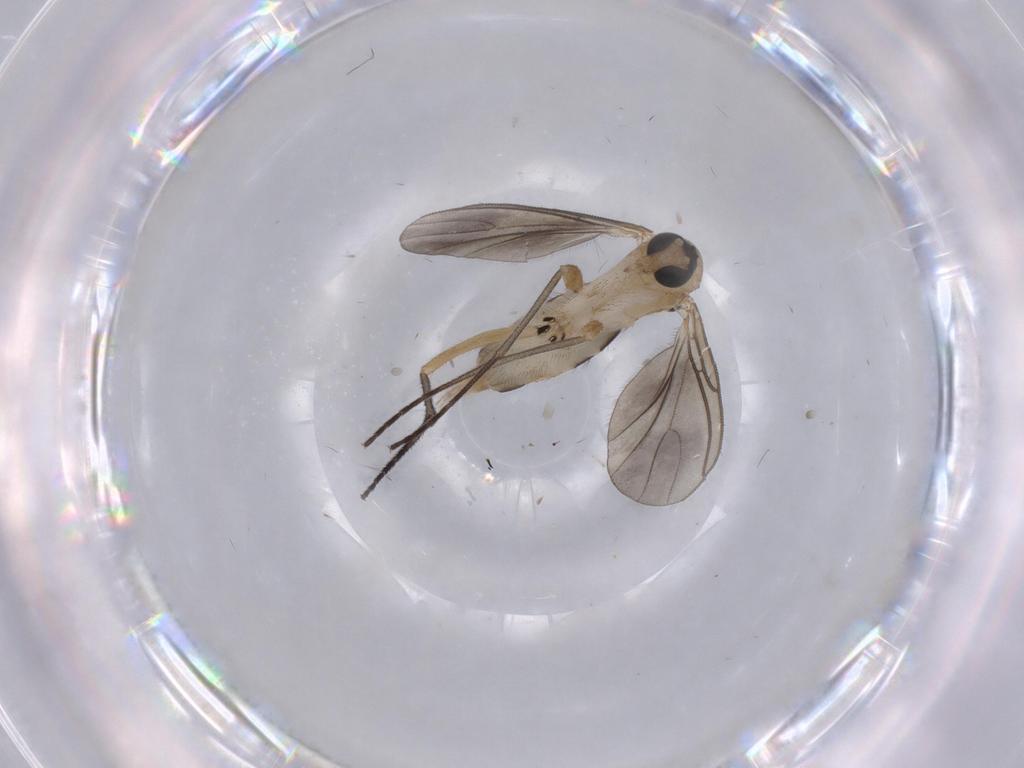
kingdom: Animalia
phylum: Arthropoda
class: Insecta
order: Diptera
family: Sciaridae
